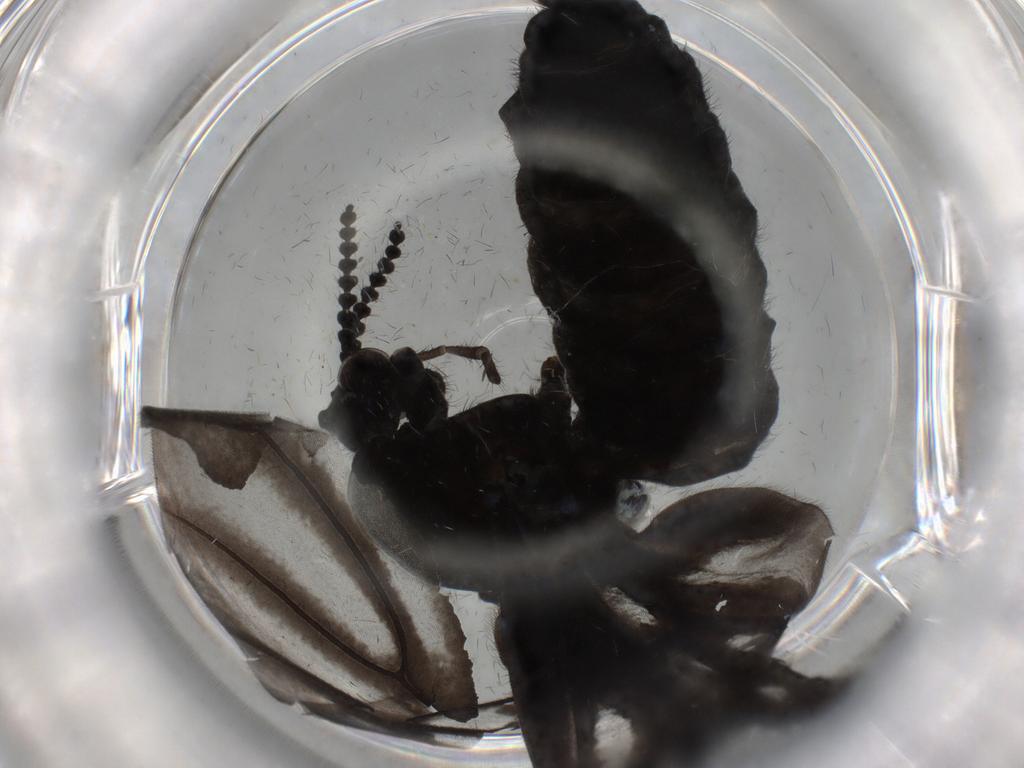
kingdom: Animalia
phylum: Arthropoda
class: Insecta
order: Diptera
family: Bibionidae
